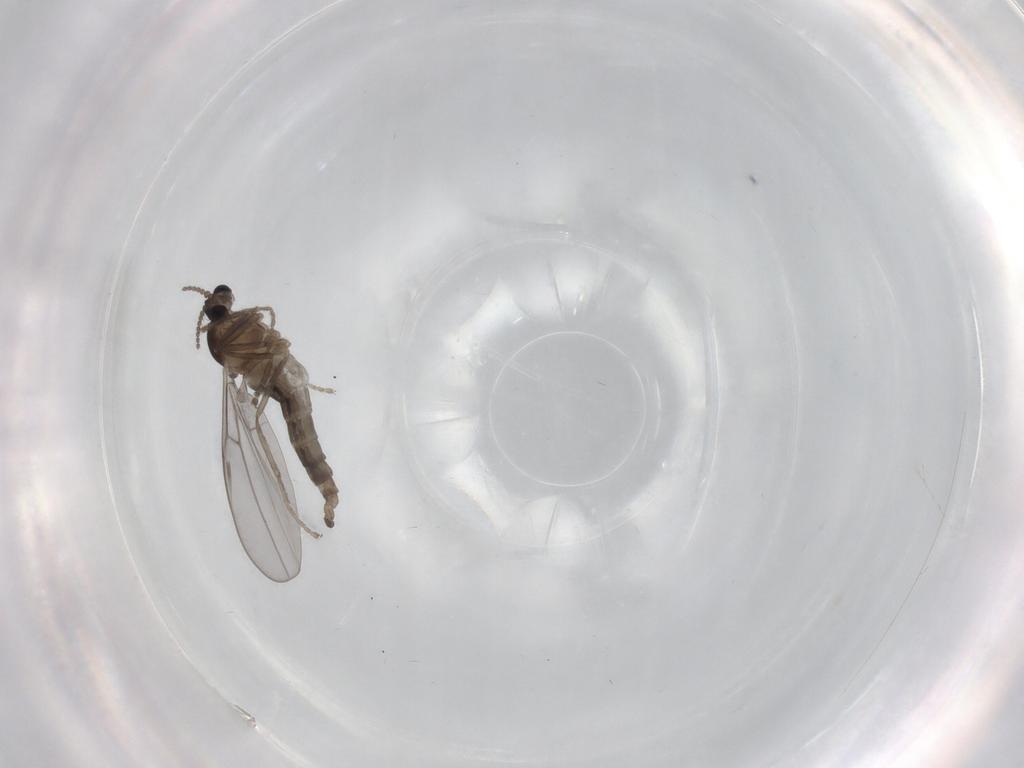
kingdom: Animalia
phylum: Arthropoda
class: Insecta
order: Diptera
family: Cecidomyiidae
